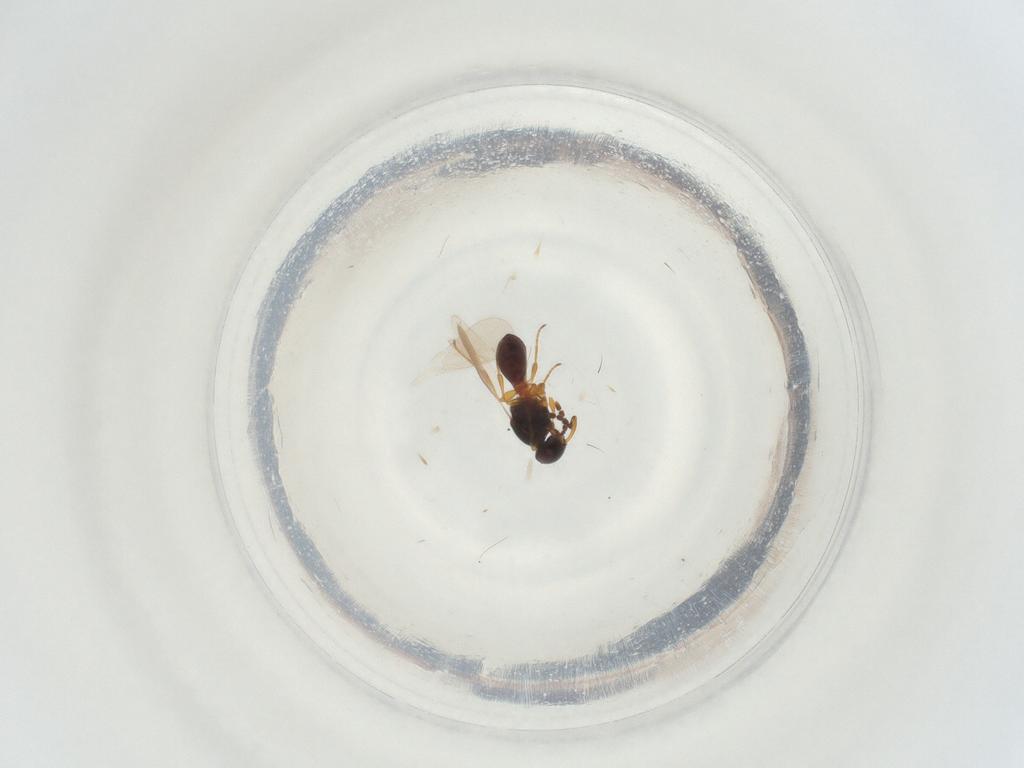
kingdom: Animalia
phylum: Arthropoda
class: Insecta
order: Hymenoptera
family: Platygastridae
